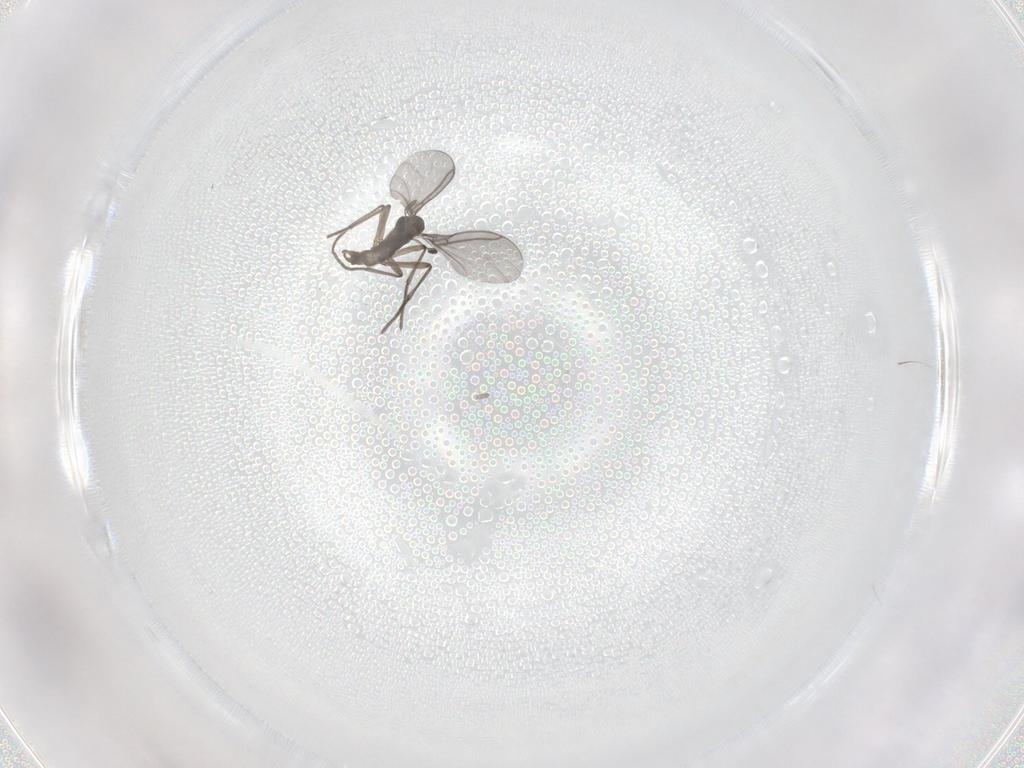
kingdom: Animalia
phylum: Arthropoda
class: Insecta
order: Diptera
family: Sciaridae
